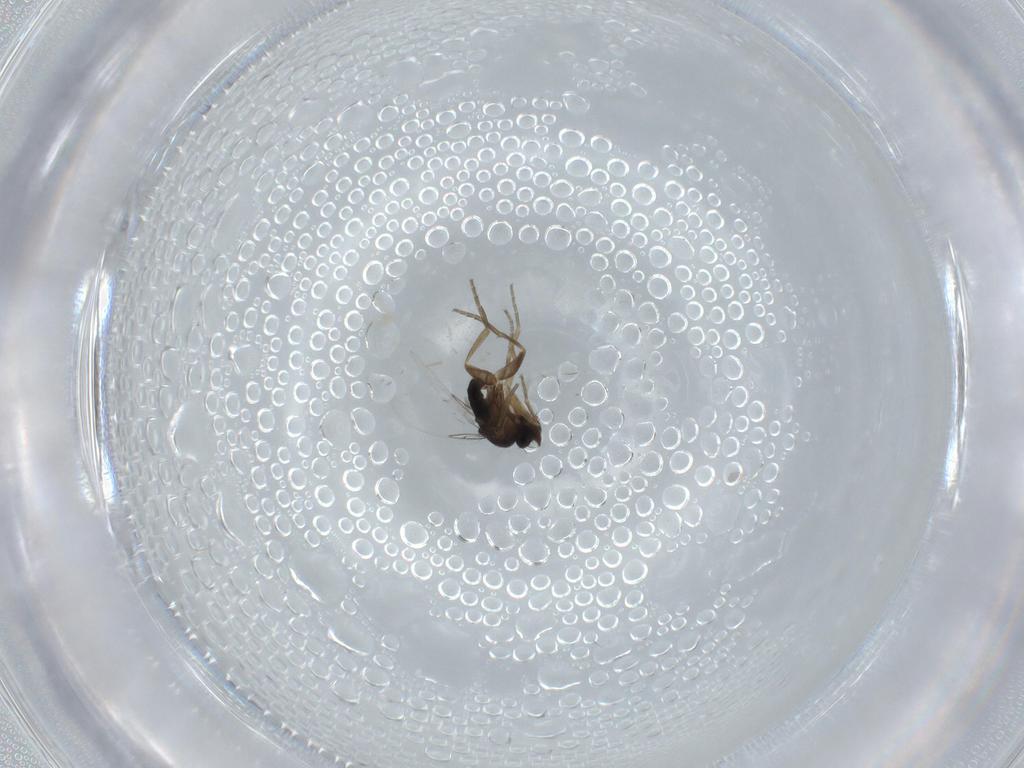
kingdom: Animalia
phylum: Arthropoda
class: Insecta
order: Diptera
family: Phoridae
